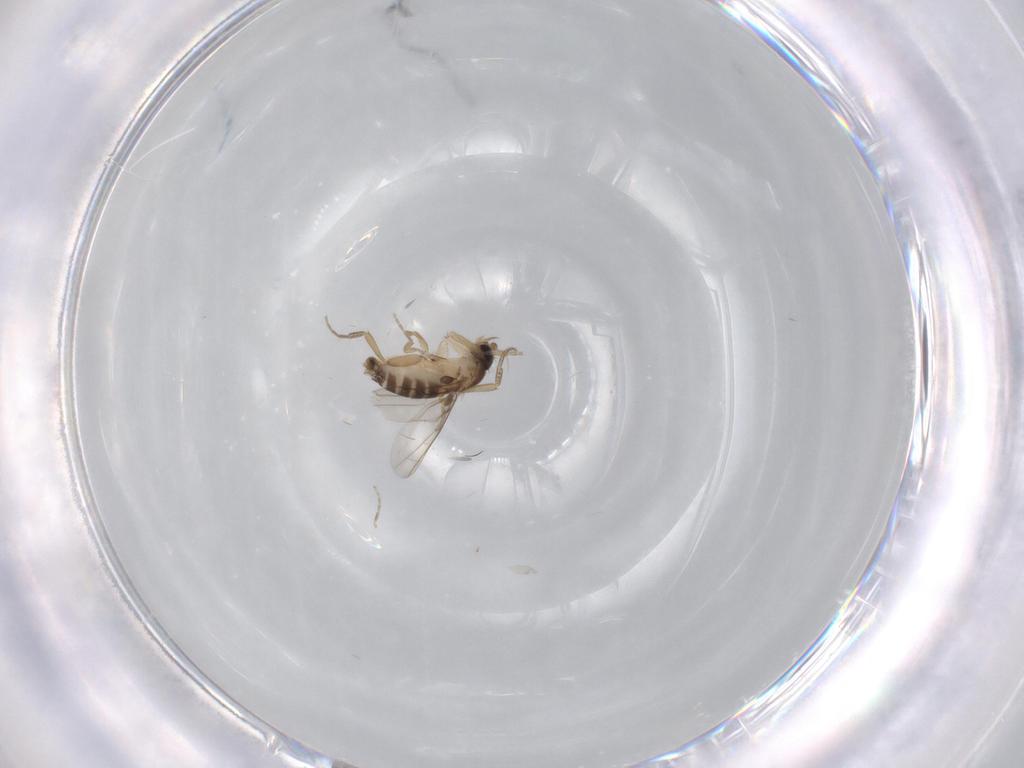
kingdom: Animalia
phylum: Arthropoda
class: Insecta
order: Diptera
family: Phoridae
